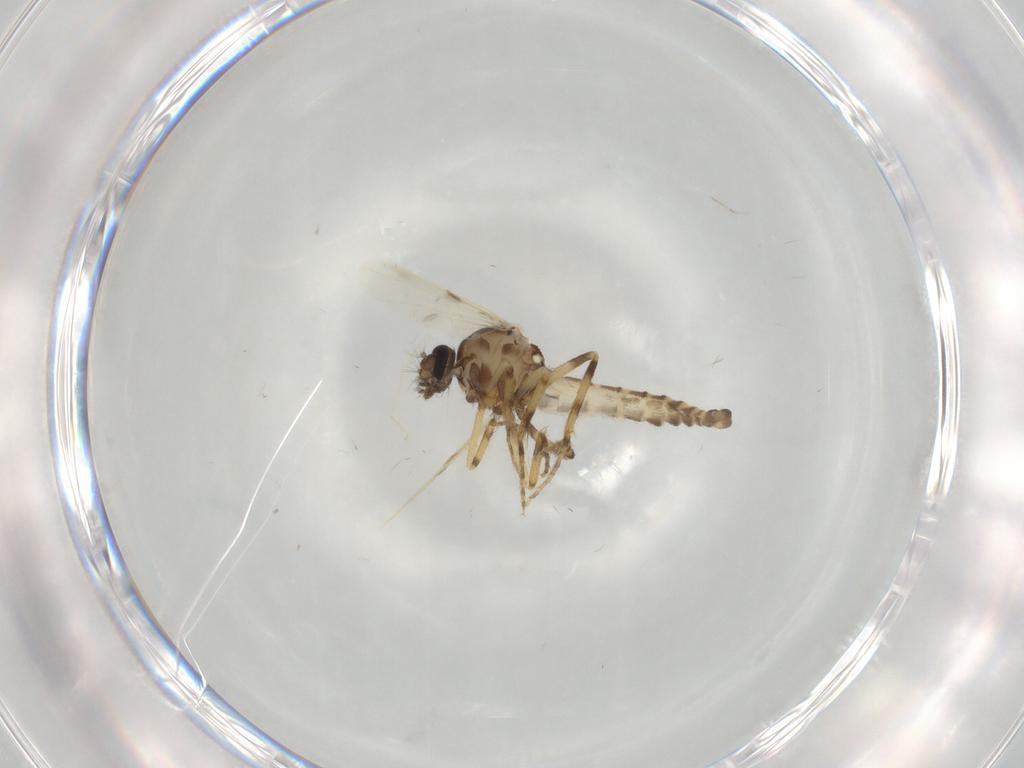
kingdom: Animalia
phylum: Arthropoda
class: Insecta
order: Diptera
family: Ceratopogonidae
